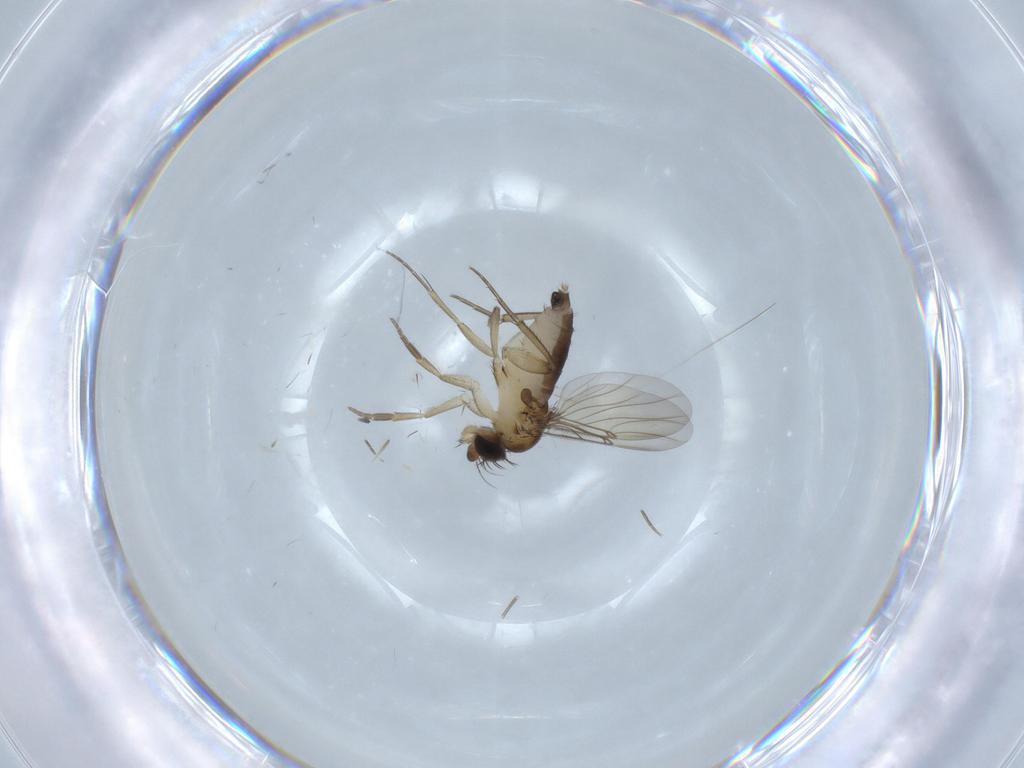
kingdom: Animalia
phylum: Arthropoda
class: Insecta
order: Diptera
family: Phoridae
